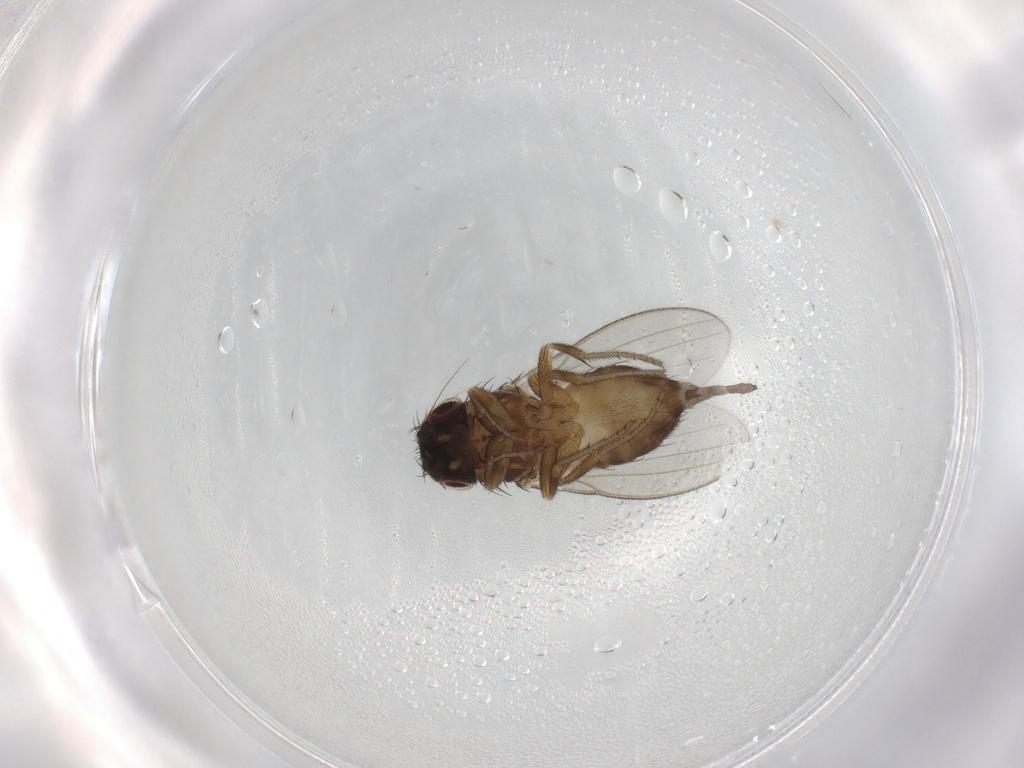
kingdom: Animalia
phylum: Arthropoda
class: Insecta
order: Diptera
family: Milichiidae
